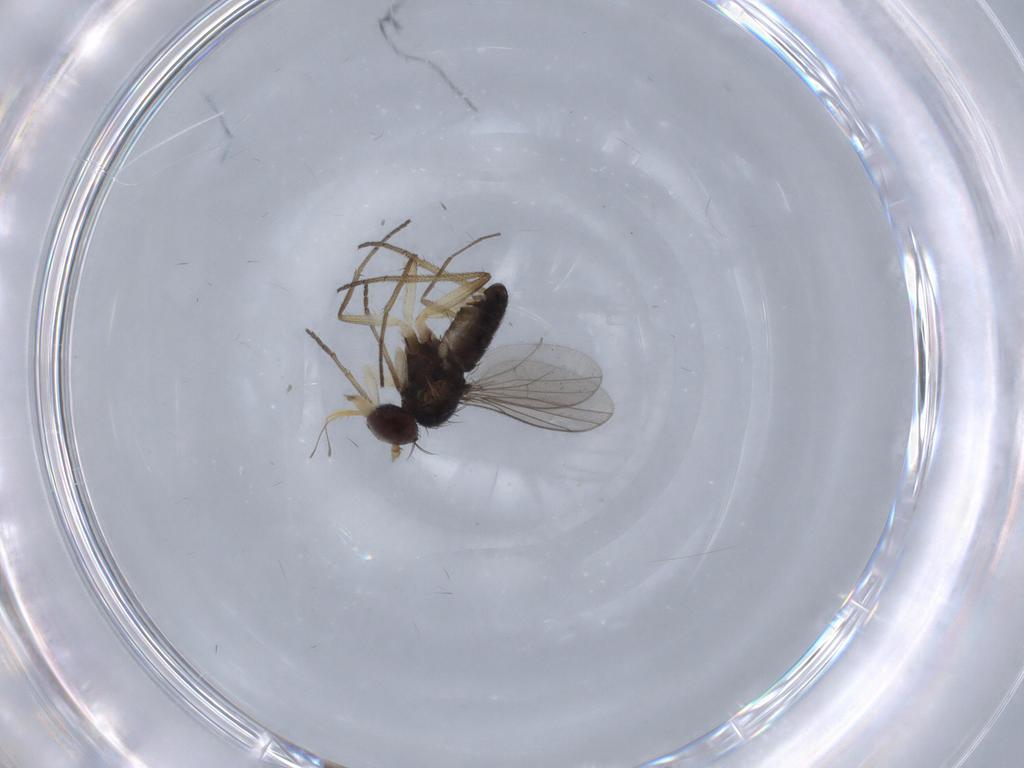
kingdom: Animalia
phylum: Arthropoda
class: Insecta
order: Diptera
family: Dolichopodidae
